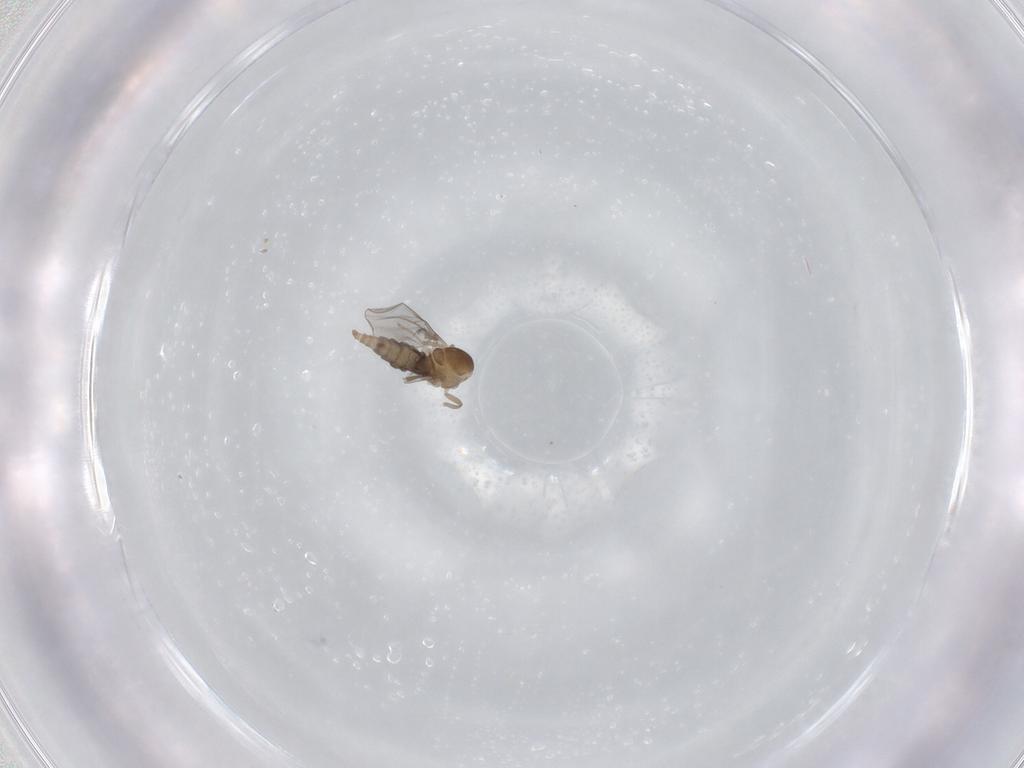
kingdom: Animalia
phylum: Arthropoda
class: Insecta
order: Diptera
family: Cecidomyiidae
